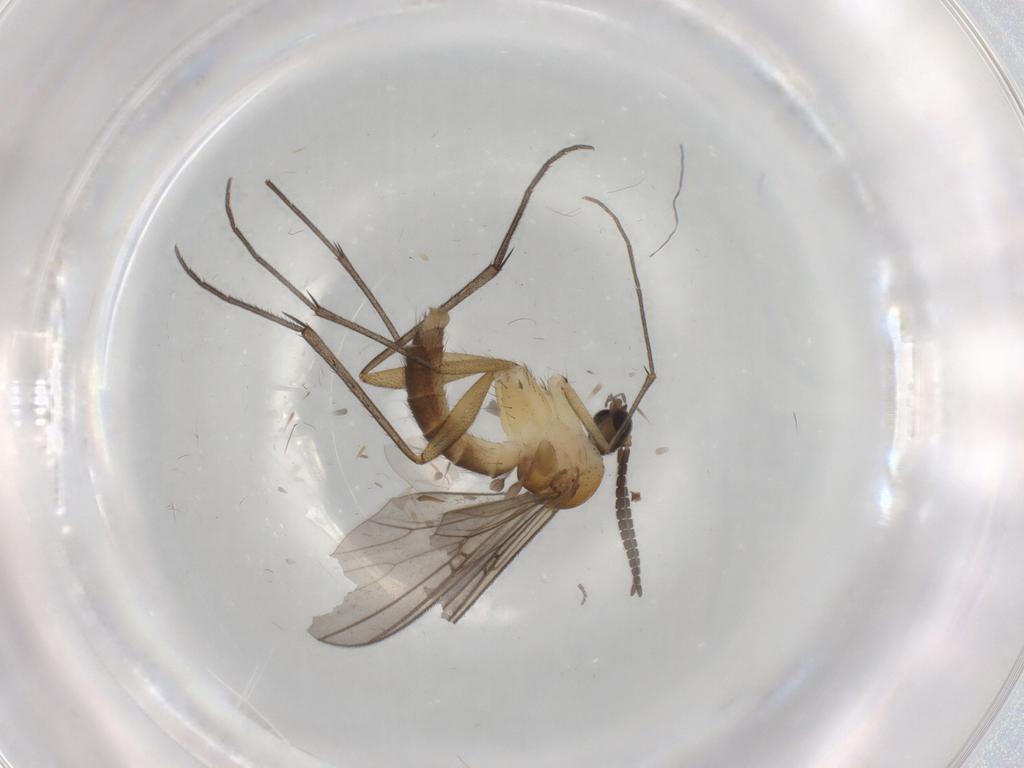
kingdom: Animalia
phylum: Arthropoda
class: Insecta
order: Diptera
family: Mycetophilidae
